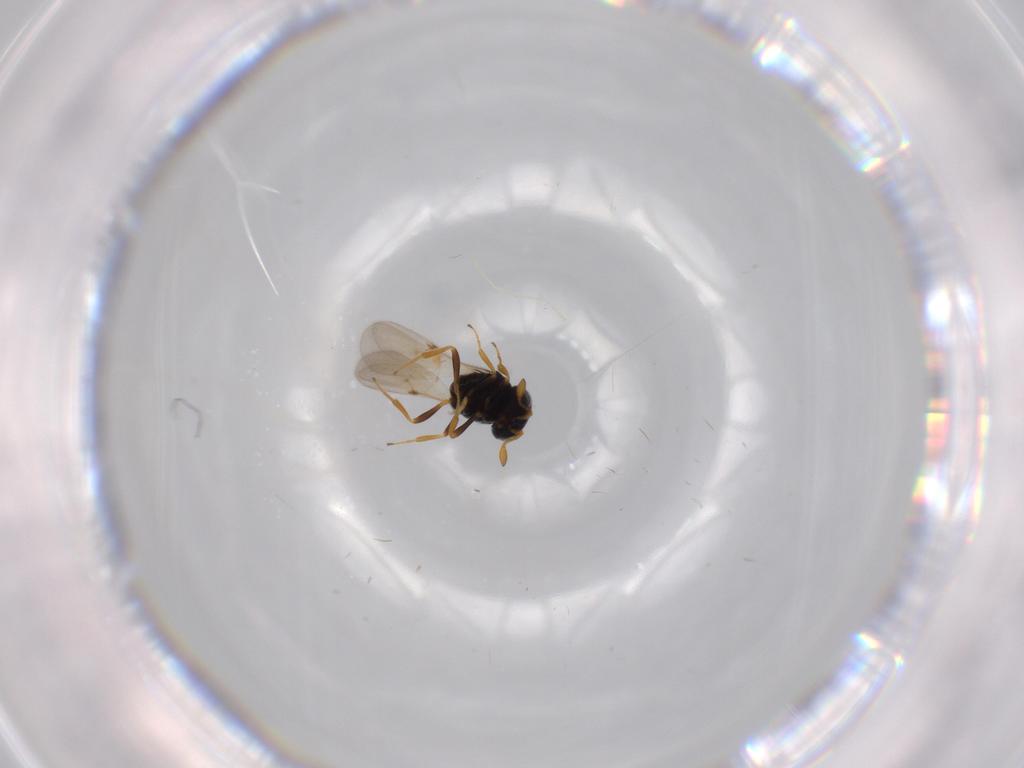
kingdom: Animalia
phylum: Arthropoda
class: Insecta
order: Hymenoptera
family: Scelionidae
